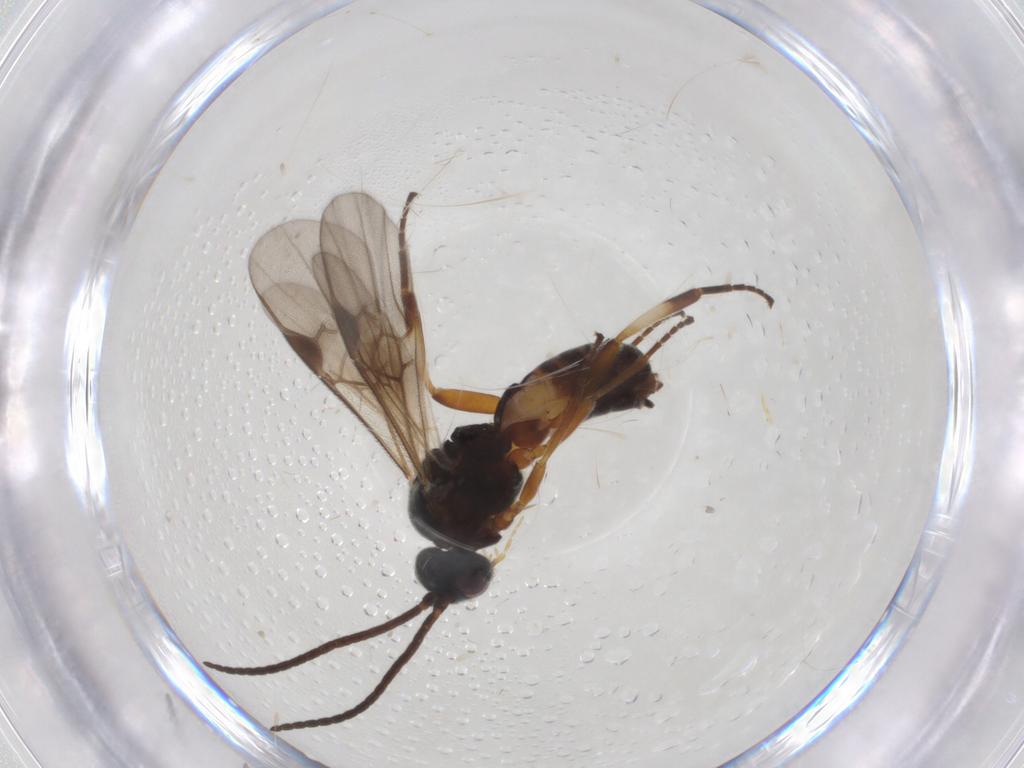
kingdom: Animalia
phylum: Arthropoda
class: Insecta
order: Hymenoptera
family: Braconidae
